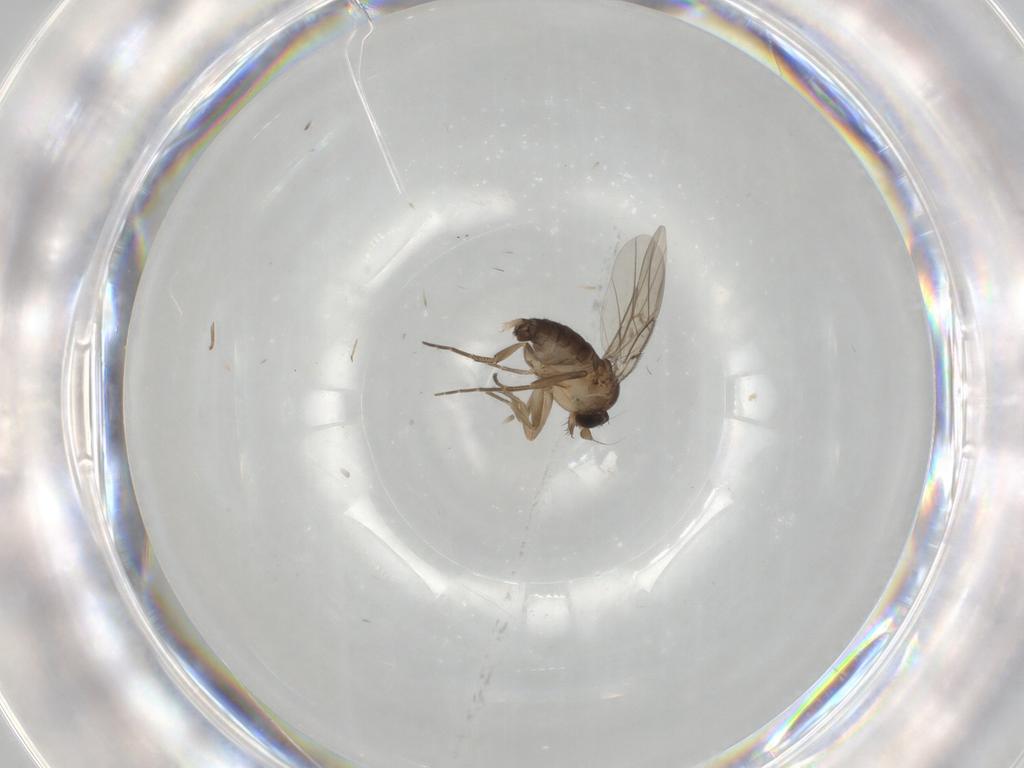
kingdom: Animalia
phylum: Arthropoda
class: Insecta
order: Diptera
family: Phoridae
